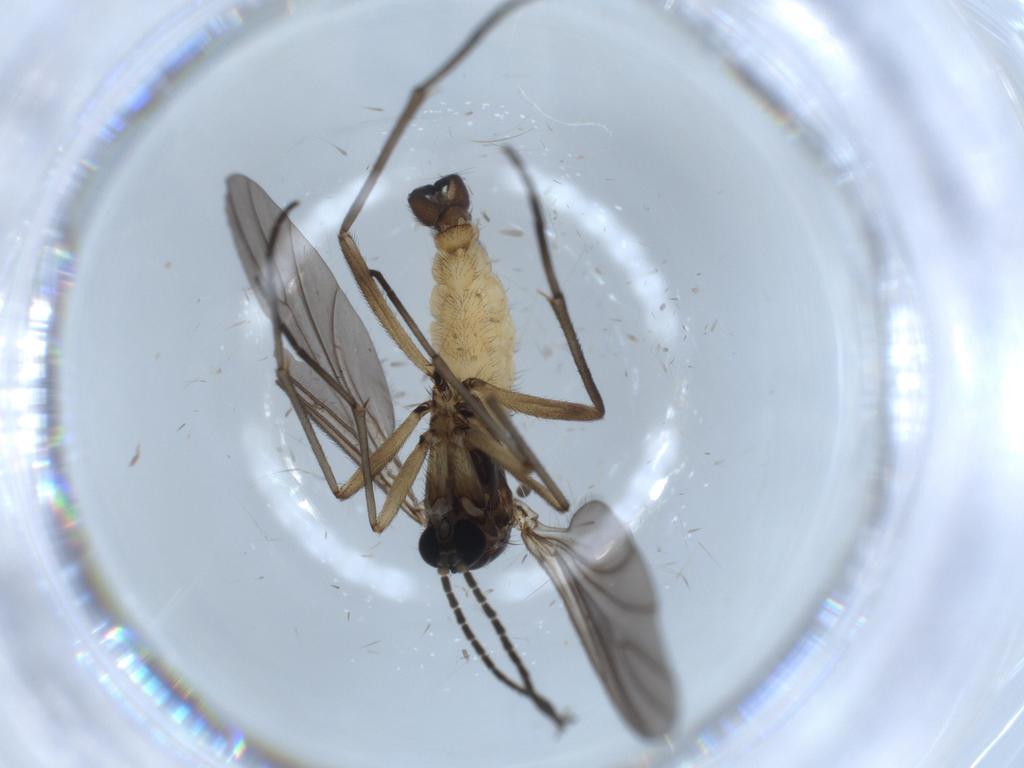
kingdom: Animalia
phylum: Arthropoda
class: Insecta
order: Diptera
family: Sciaridae
